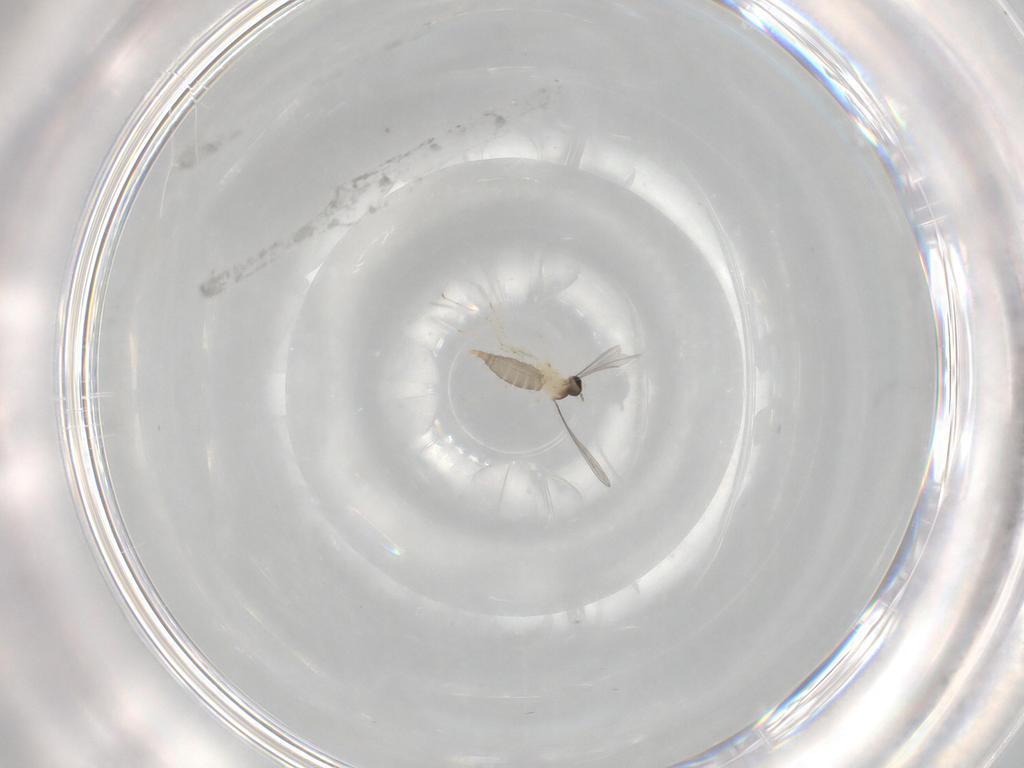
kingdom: Animalia
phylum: Arthropoda
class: Insecta
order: Diptera
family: Cecidomyiidae
